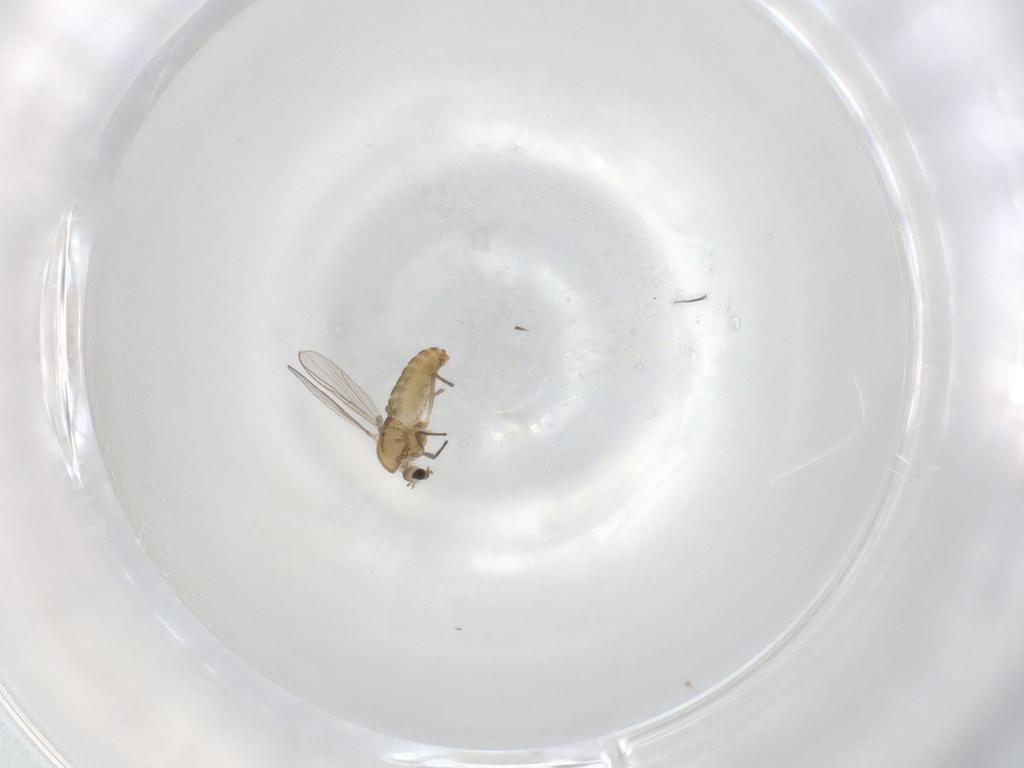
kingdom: Animalia
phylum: Arthropoda
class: Insecta
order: Diptera
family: Chironomidae
